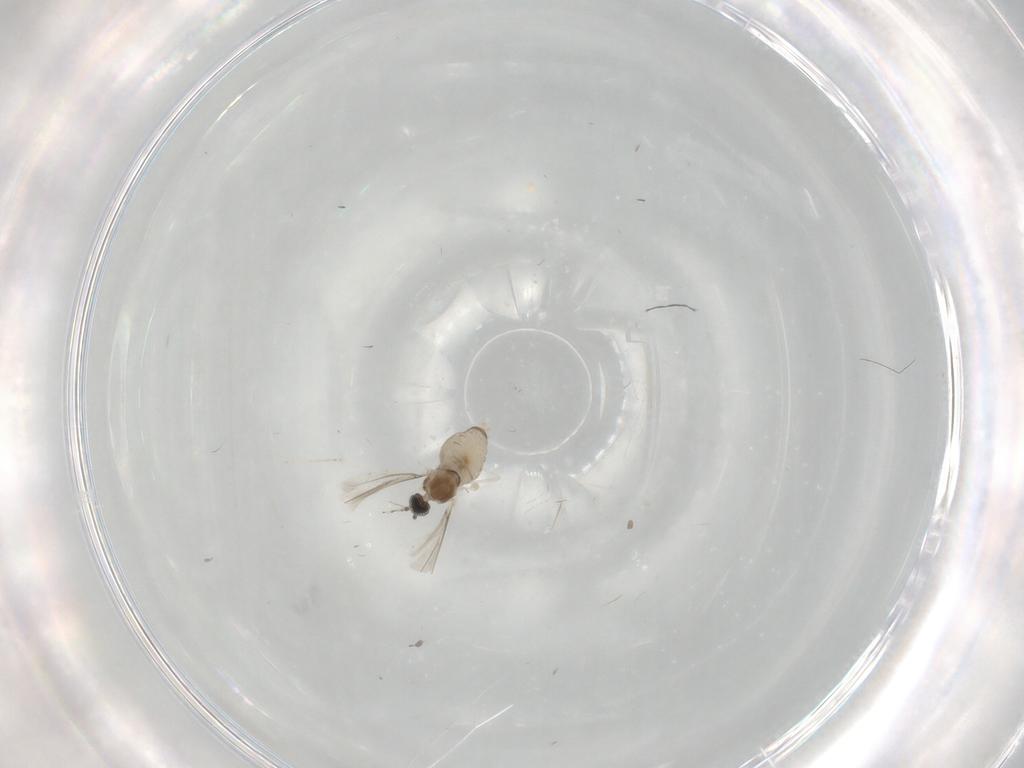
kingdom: Animalia
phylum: Arthropoda
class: Insecta
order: Diptera
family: Cecidomyiidae
